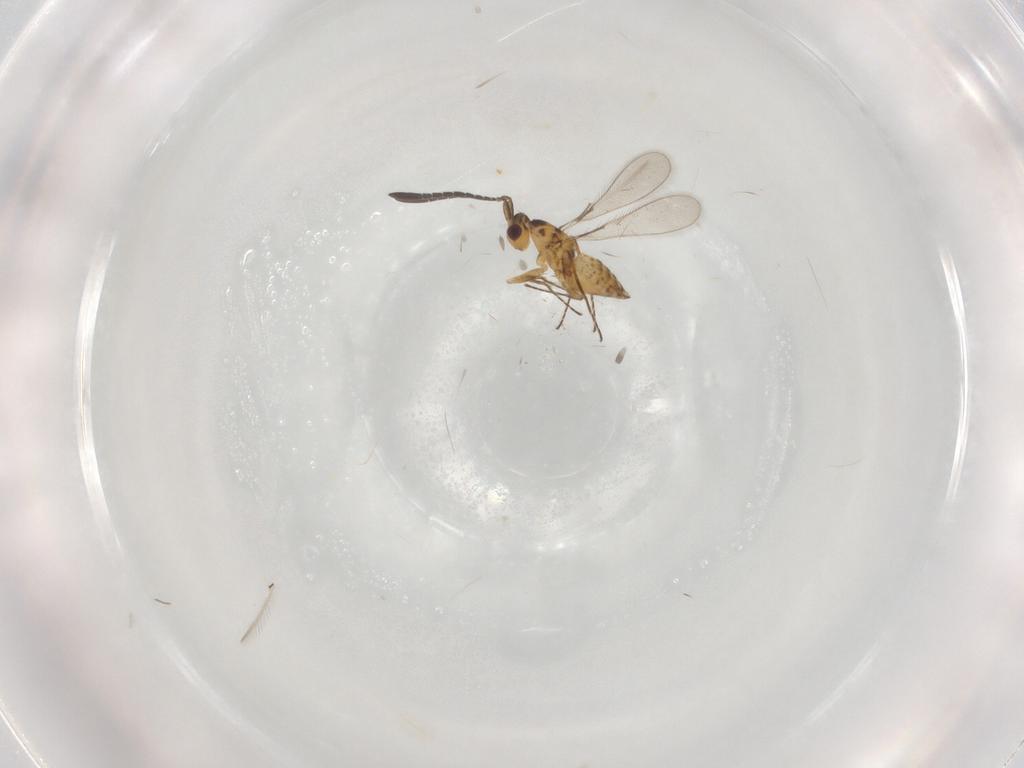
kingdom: Animalia
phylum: Arthropoda
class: Insecta
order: Hymenoptera
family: Mymaridae
